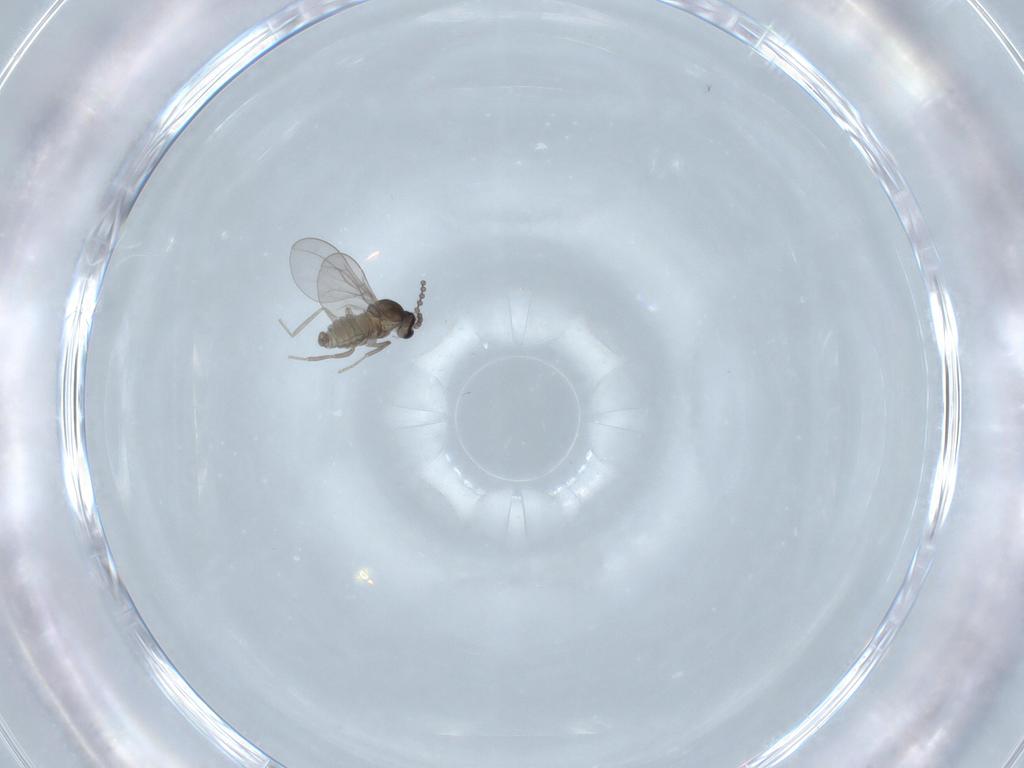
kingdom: Animalia
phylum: Arthropoda
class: Insecta
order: Diptera
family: Cecidomyiidae
